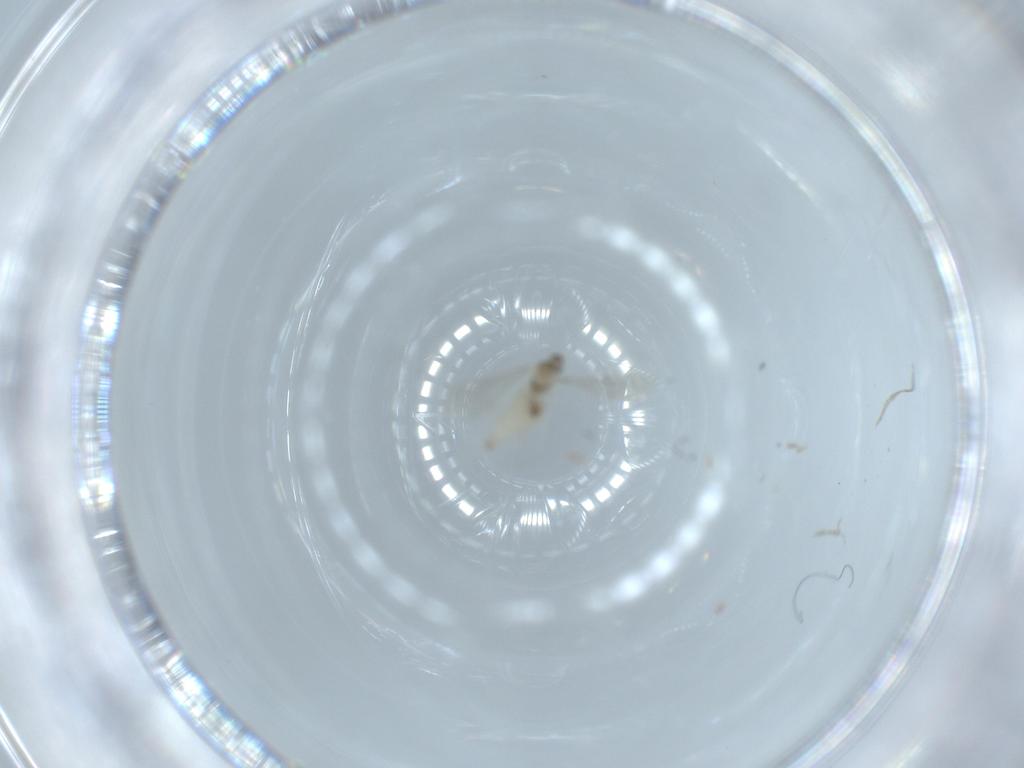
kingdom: Animalia
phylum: Arthropoda
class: Insecta
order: Diptera
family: Cecidomyiidae
